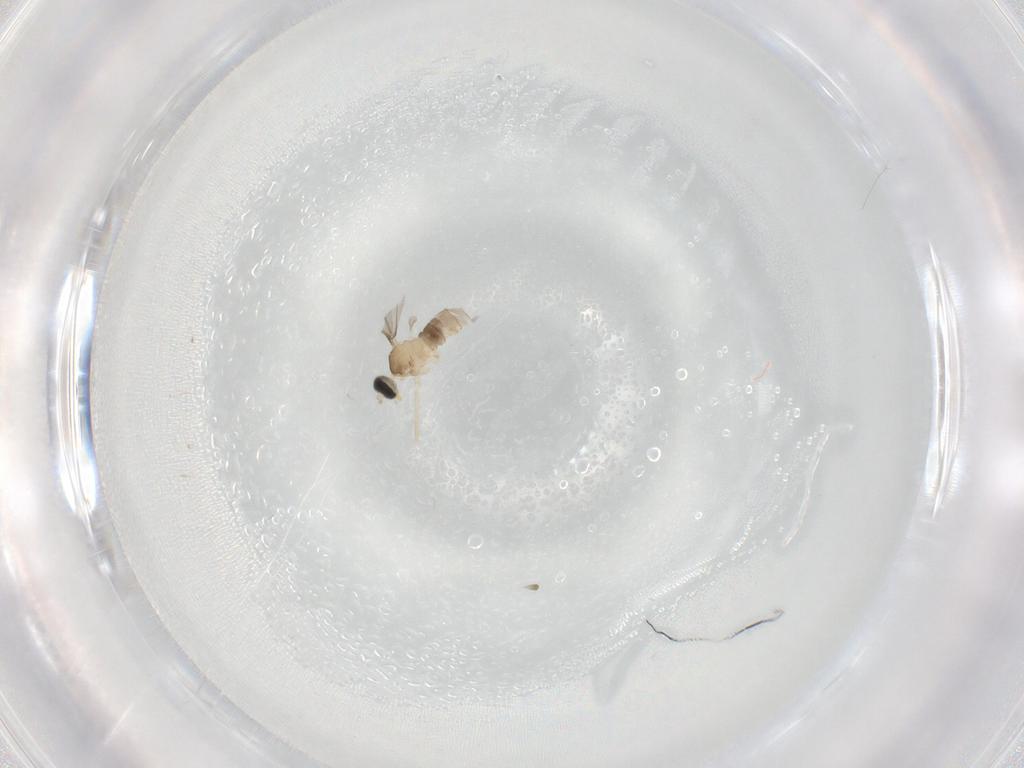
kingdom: Animalia
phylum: Arthropoda
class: Insecta
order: Diptera
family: Cecidomyiidae
